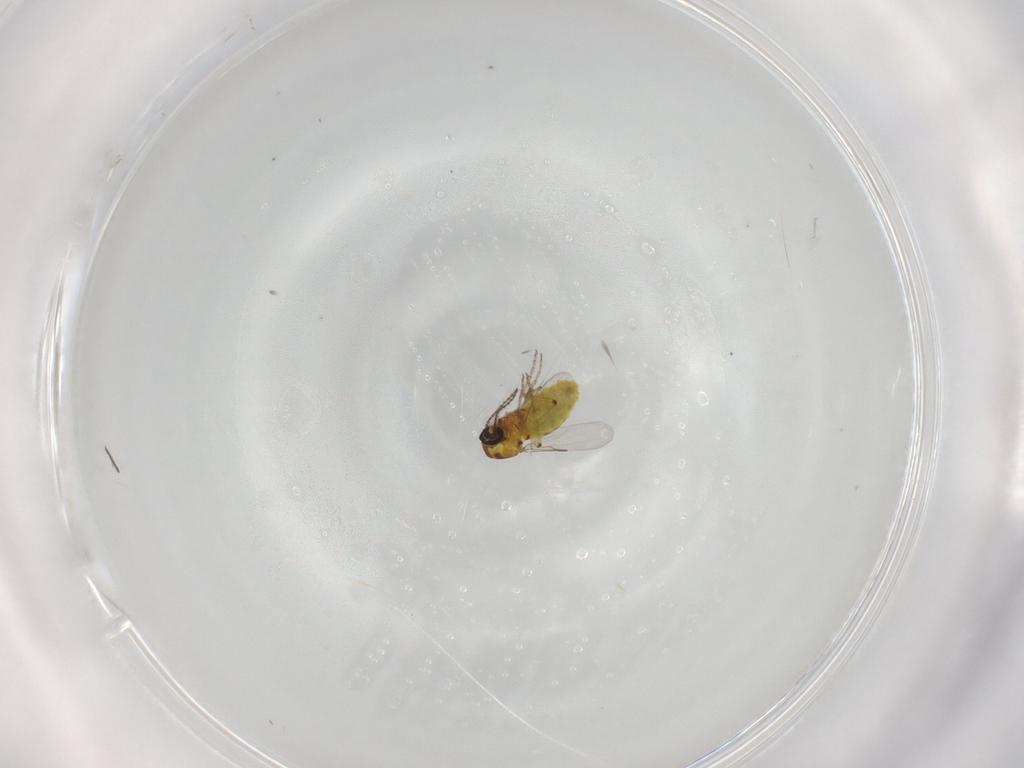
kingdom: Animalia
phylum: Arthropoda
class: Insecta
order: Diptera
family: Ceratopogonidae
